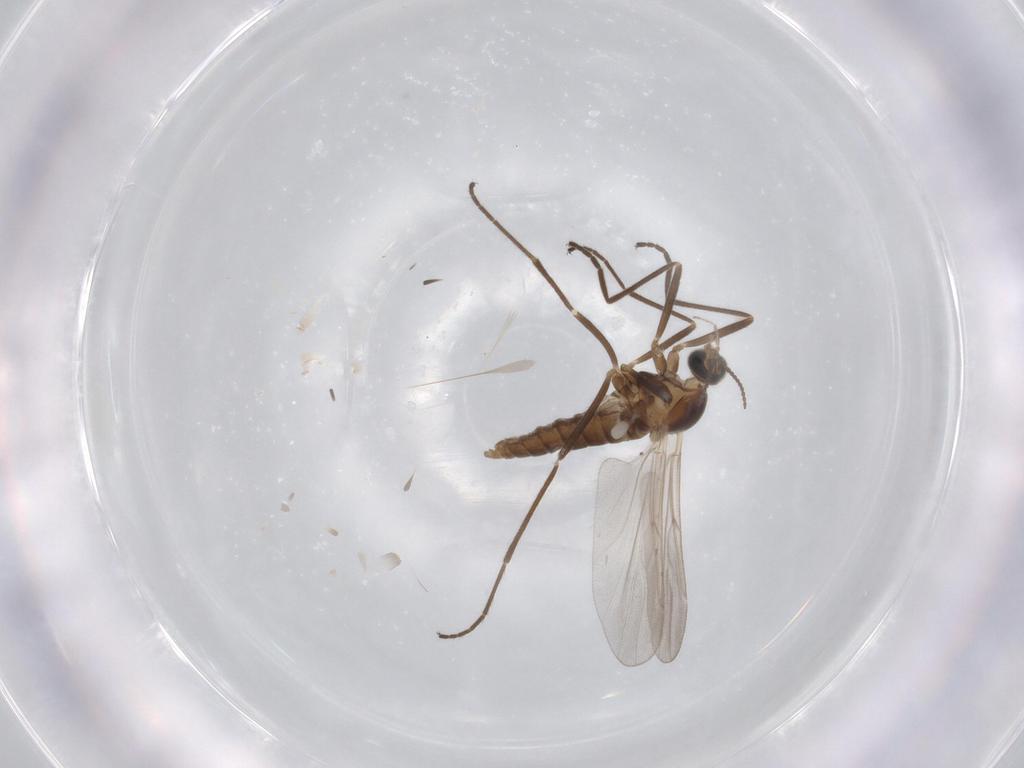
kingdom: Animalia
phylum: Arthropoda
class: Insecta
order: Diptera
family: Cecidomyiidae
